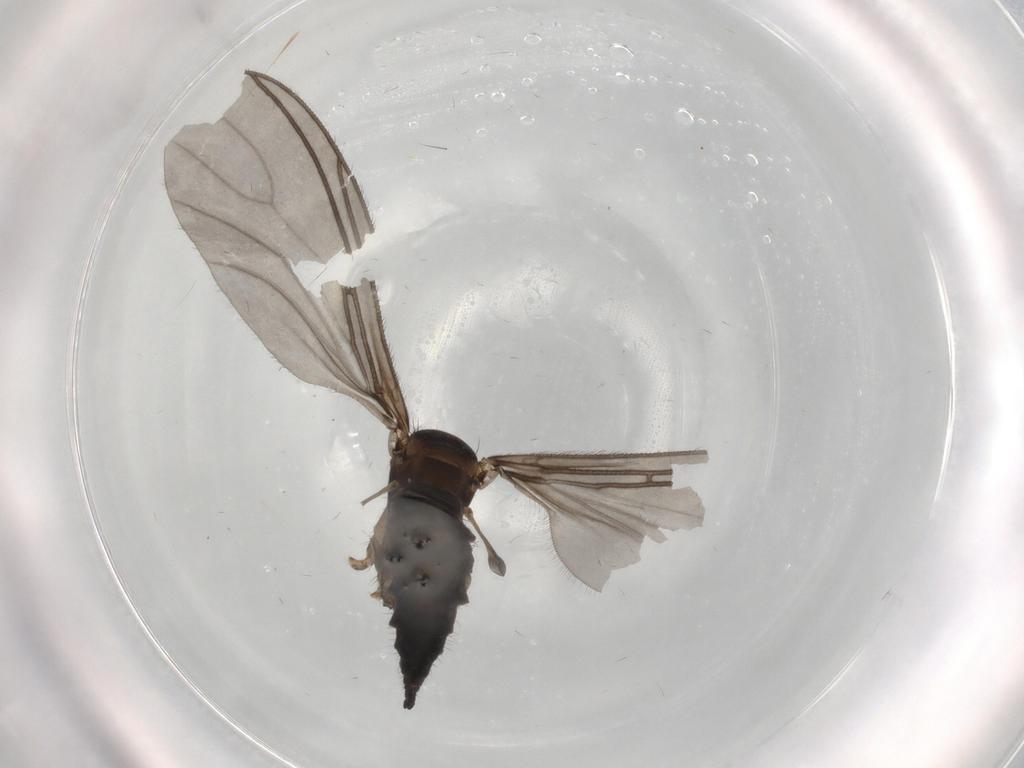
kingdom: Animalia
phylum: Arthropoda
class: Insecta
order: Diptera
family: Sciaridae
